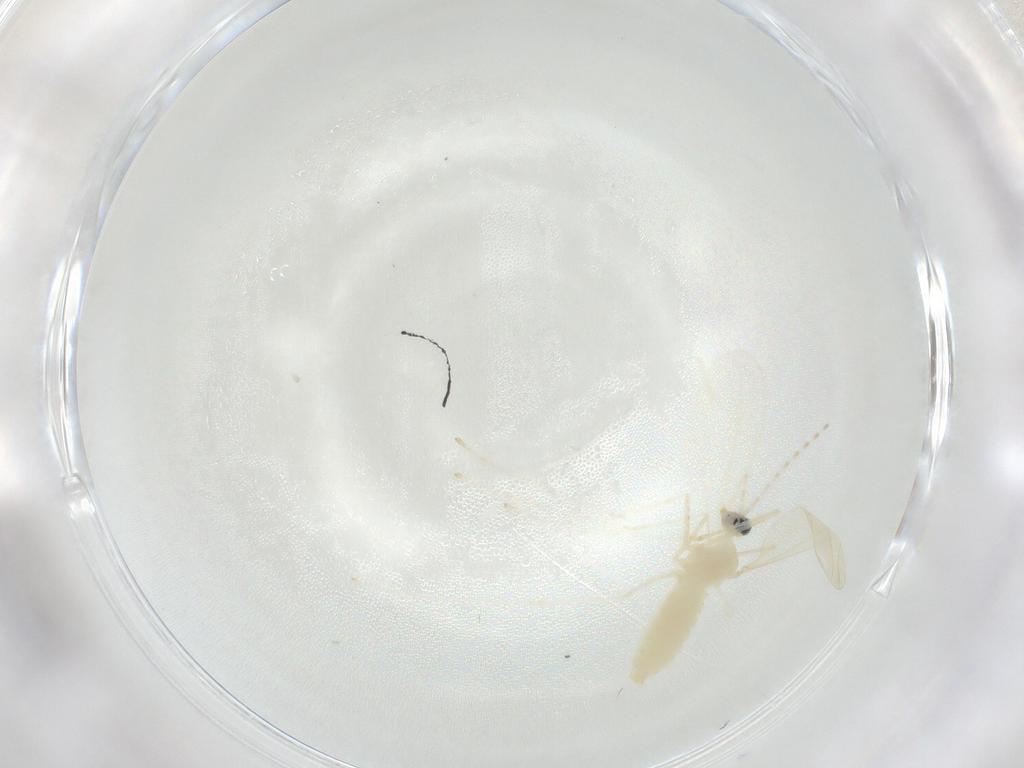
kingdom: Animalia
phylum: Arthropoda
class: Insecta
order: Diptera
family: Cecidomyiidae
